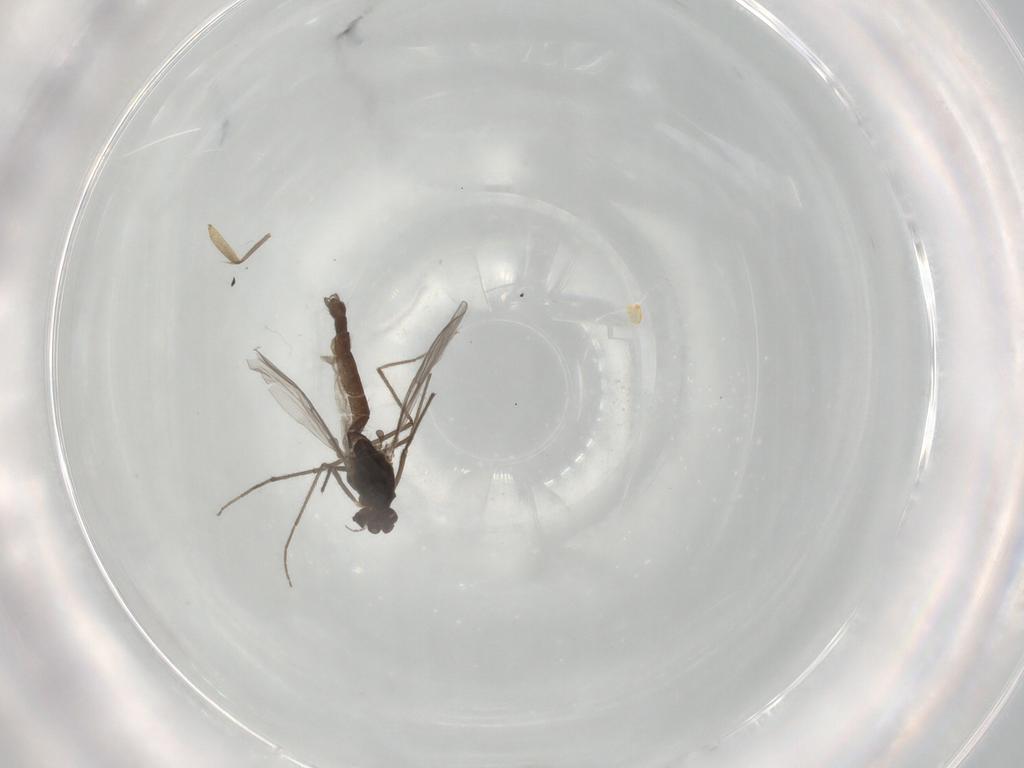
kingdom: Animalia
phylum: Arthropoda
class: Insecta
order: Diptera
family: Chironomidae
